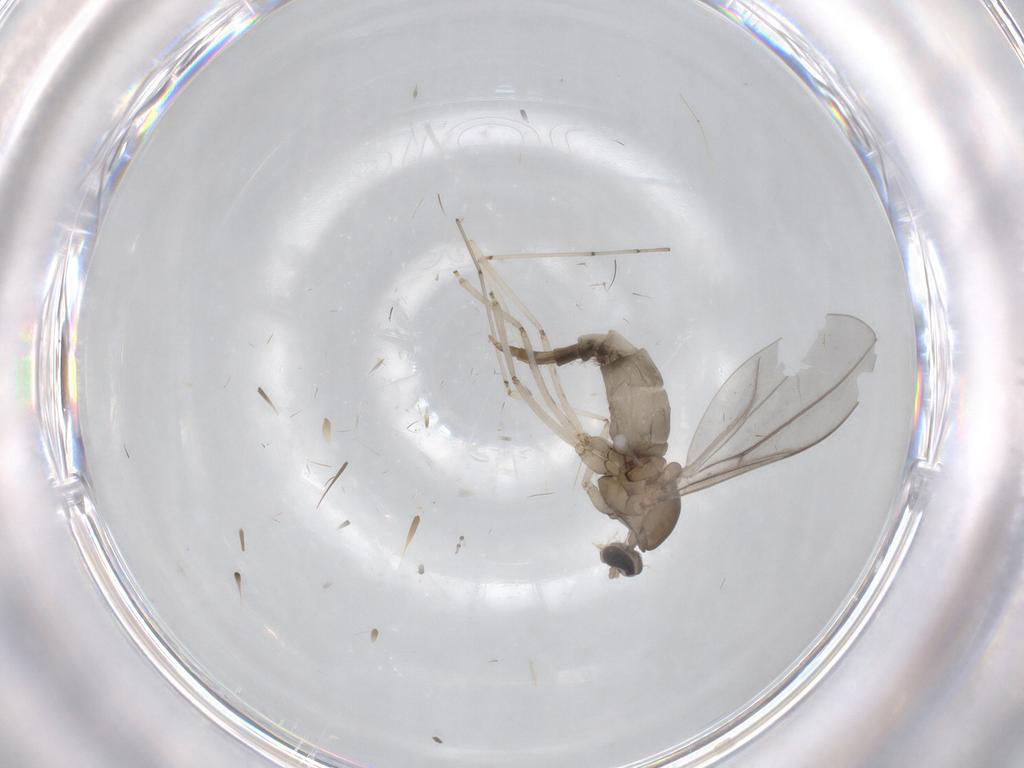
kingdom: Animalia
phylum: Arthropoda
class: Insecta
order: Diptera
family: Cecidomyiidae
